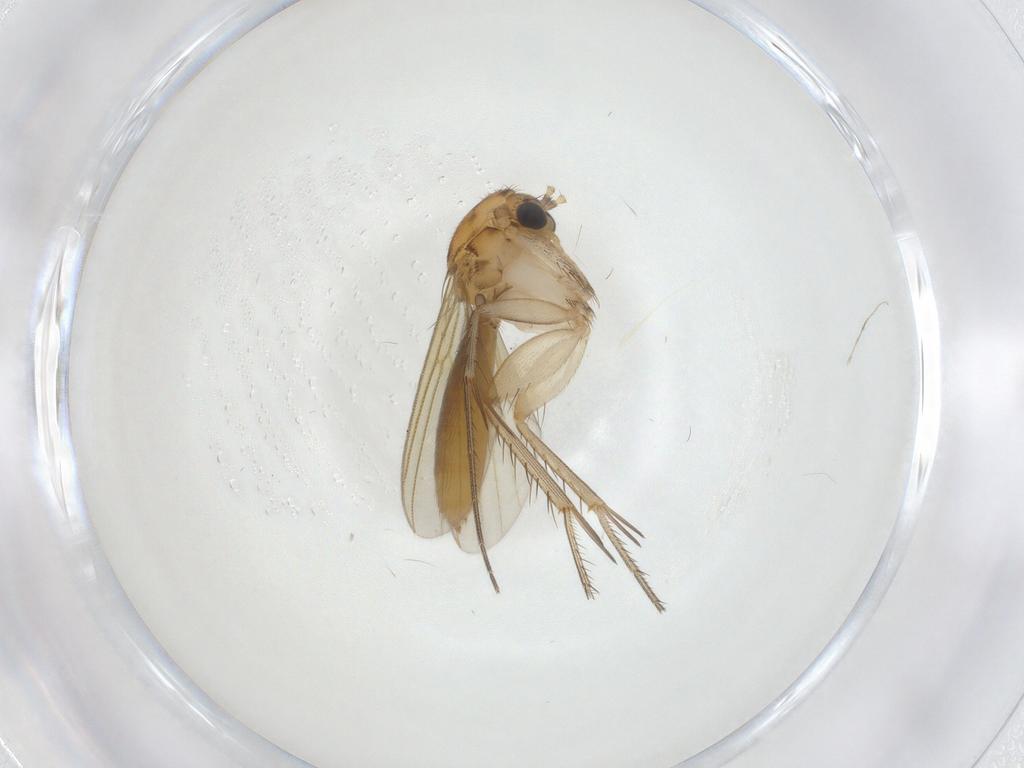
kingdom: Animalia
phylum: Arthropoda
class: Insecta
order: Diptera
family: Mycetophilidae
